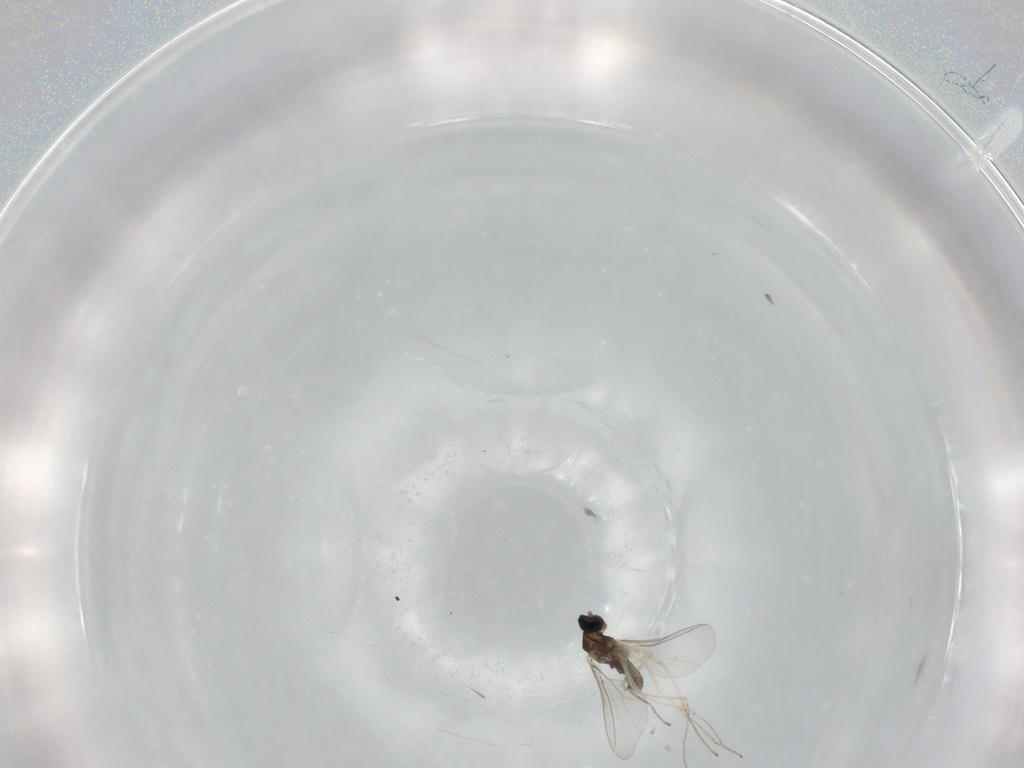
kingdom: Animalia
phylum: Arthropoda
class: Insecta
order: Diptera
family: Cecidomyiidae
